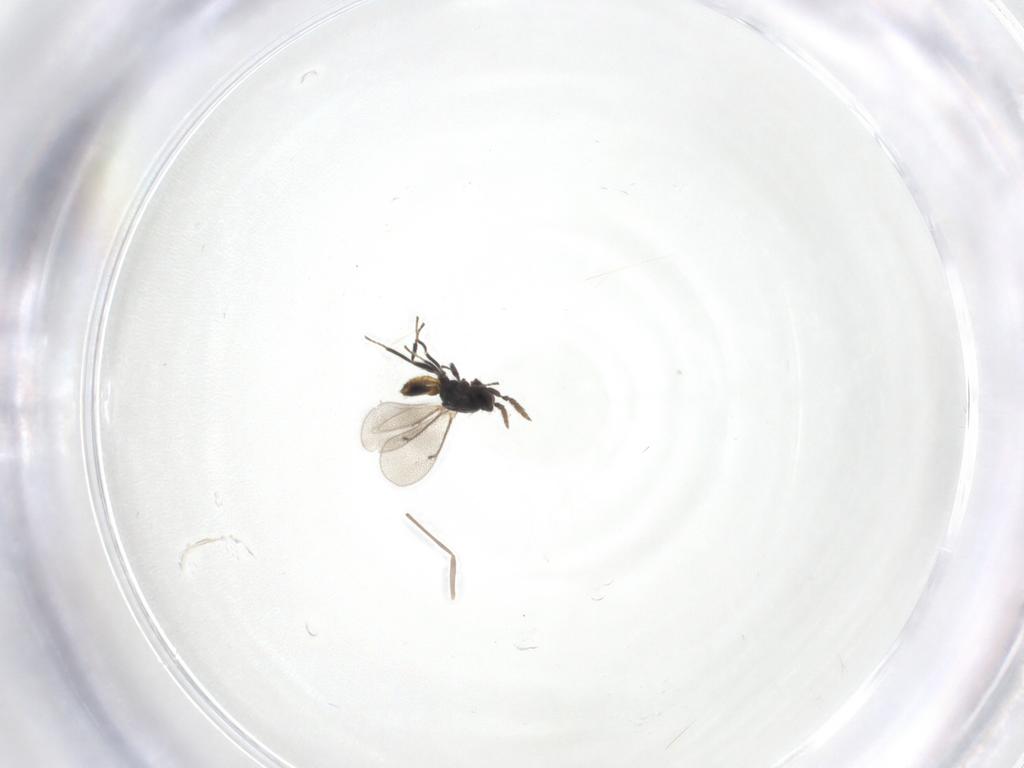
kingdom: Animalia
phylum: Arthropoda
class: Insecta
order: Hymenoptera
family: Eulophidae
